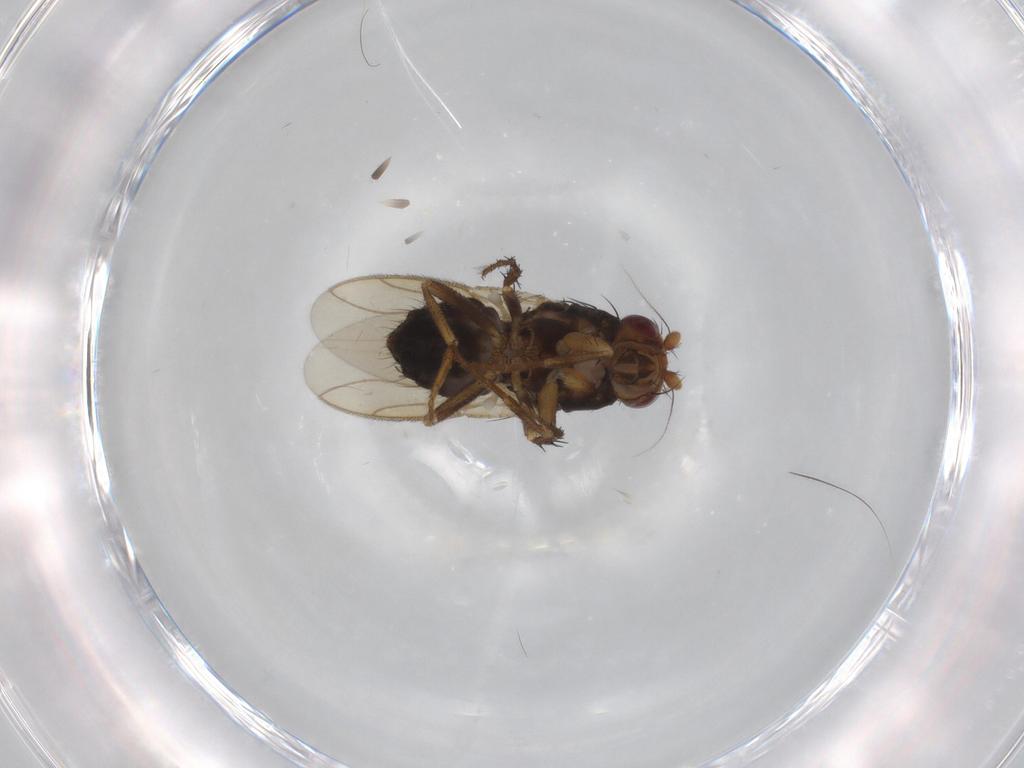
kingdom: Animalia
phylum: Arthropoda
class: Insecta
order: Diptera
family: Sphaeroceridae
